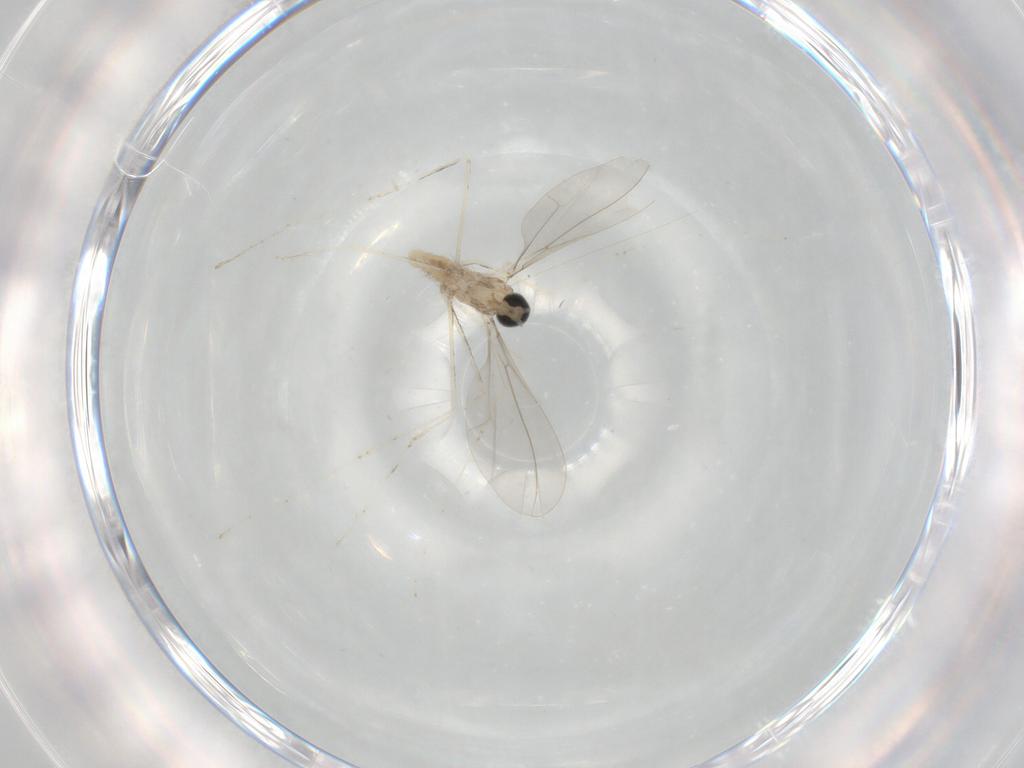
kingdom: Animalia
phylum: Arthropoda
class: Insecta
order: Diptera
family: Cecidomyiidae
